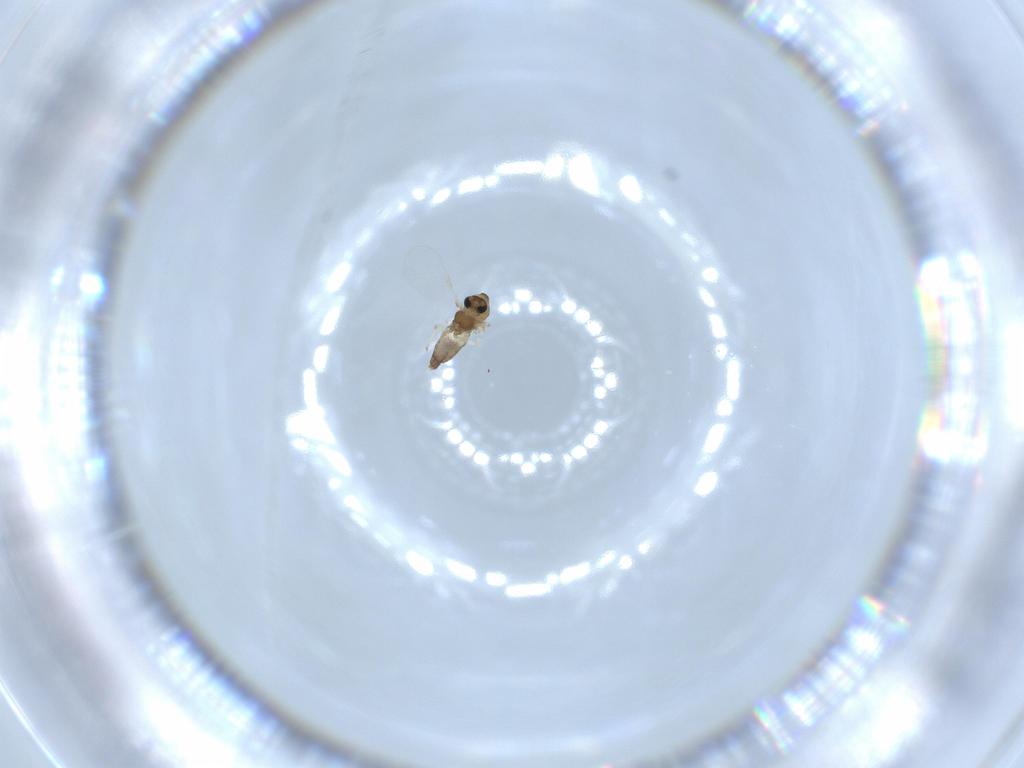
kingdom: Animalia
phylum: Arthropoda
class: Insecta
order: Diptera
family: Chironomidae
